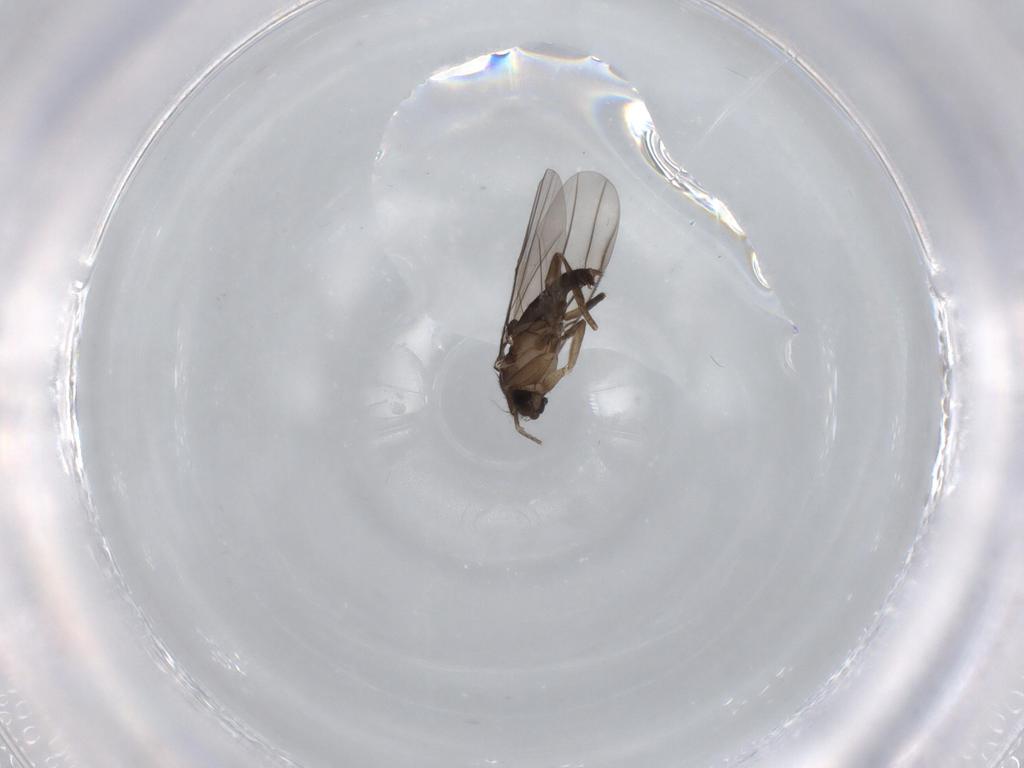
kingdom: Animalia
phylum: Arthropoda
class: Insecta
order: Diptera
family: Phoridae
